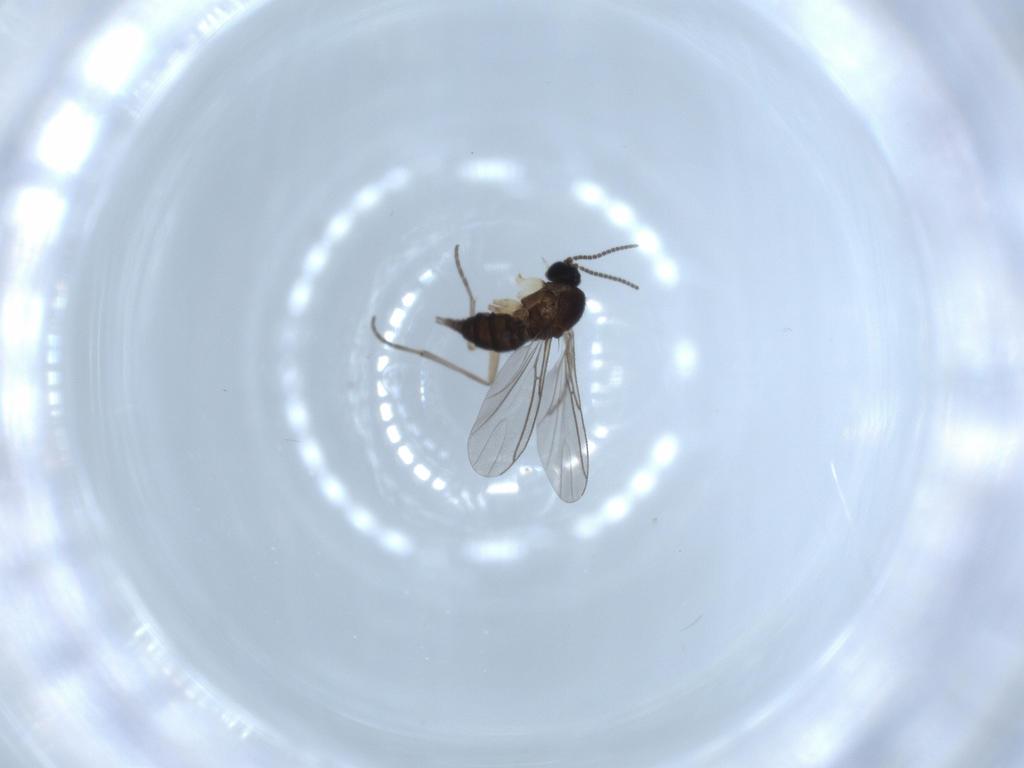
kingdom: Animalia
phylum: Arthropoda
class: Insecta
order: Diptera
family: Sciaridae
